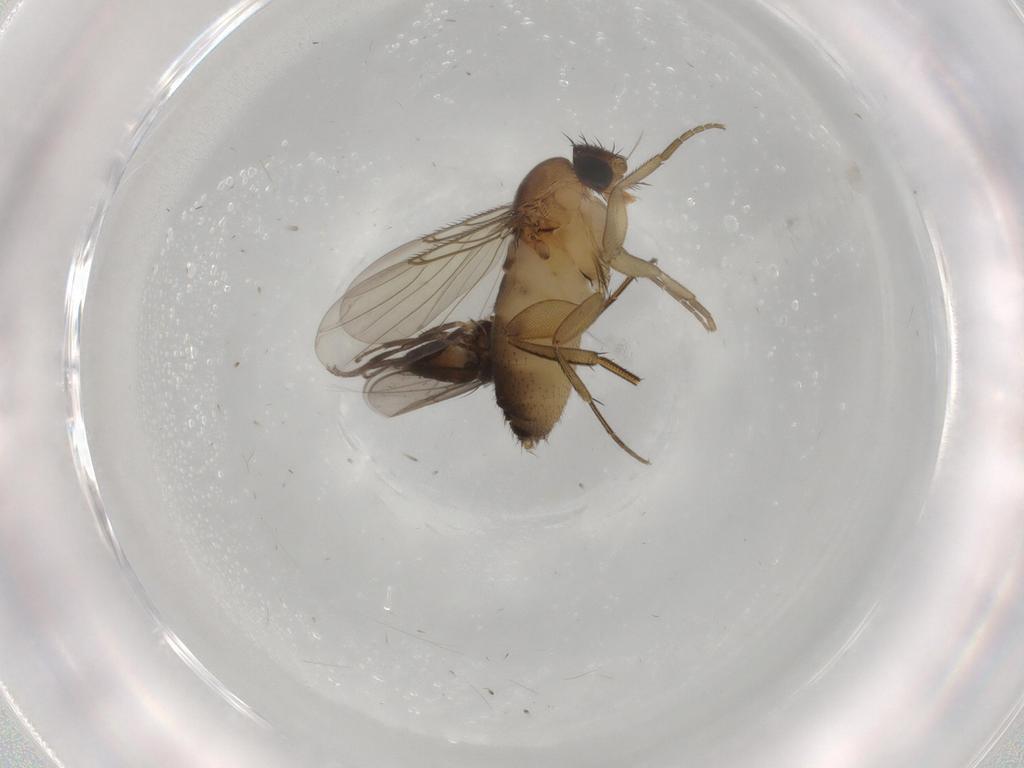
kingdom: Animalia
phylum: Arthropoda
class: Insecta
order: Diptera
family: Phoridae
